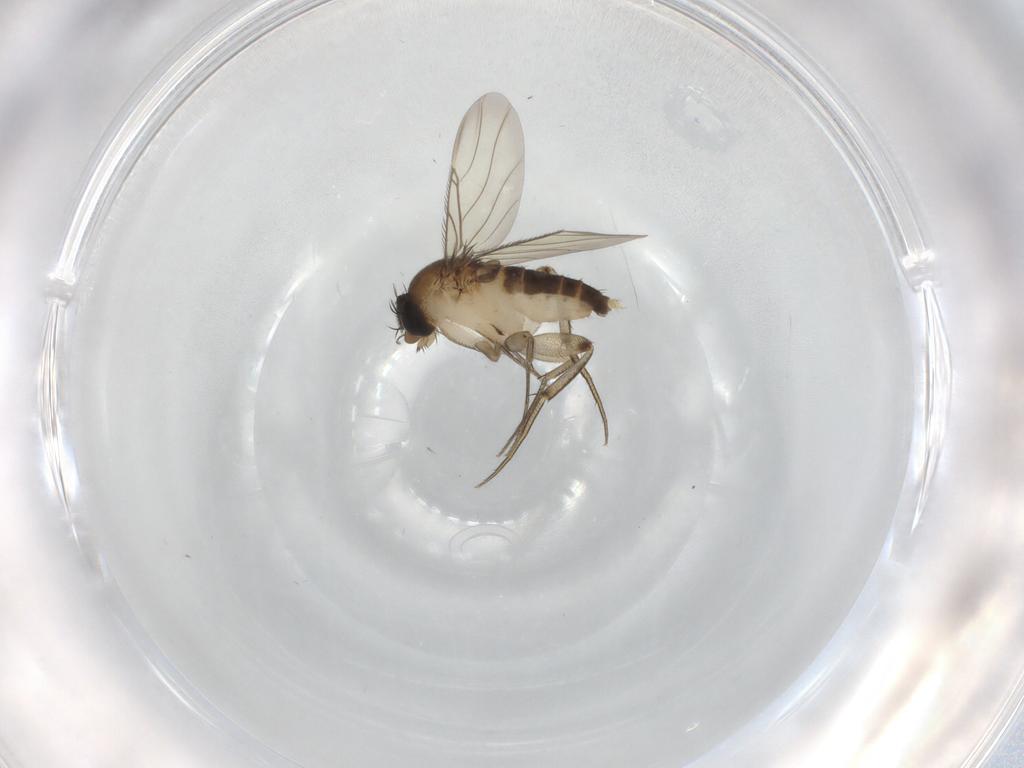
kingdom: Animalia
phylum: Arthropoda
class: Insecta
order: Diptera
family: Phoridae
